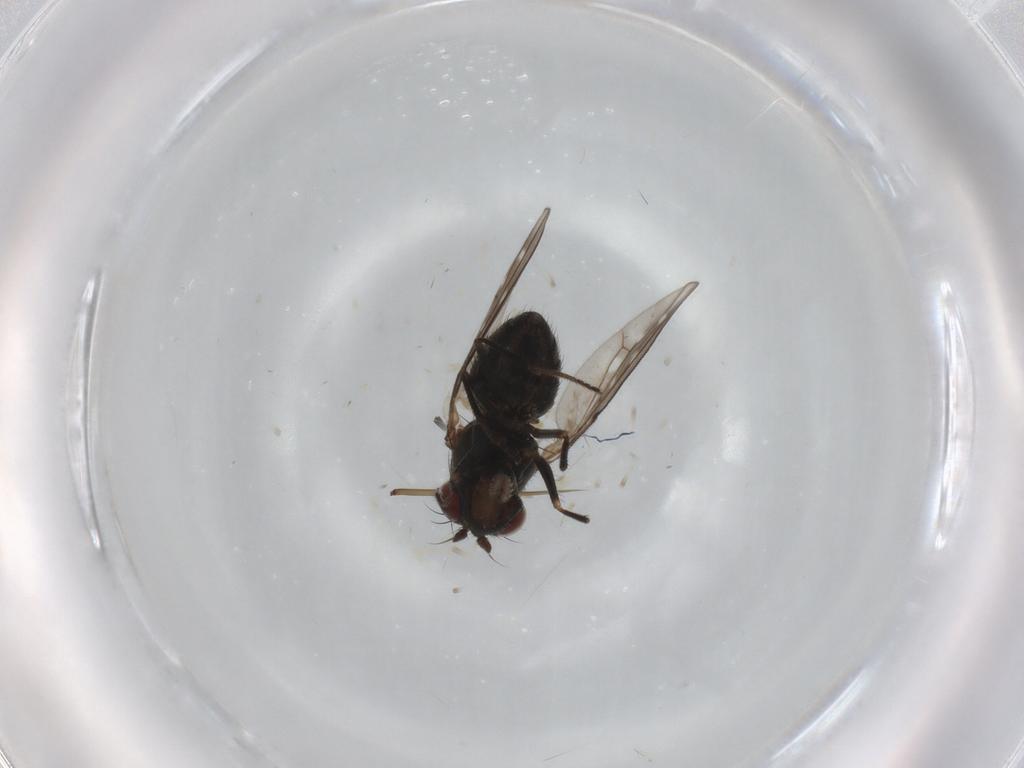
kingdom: Animalia
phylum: Arthropoda
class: Insecta
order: Diptera
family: Ephydridae
